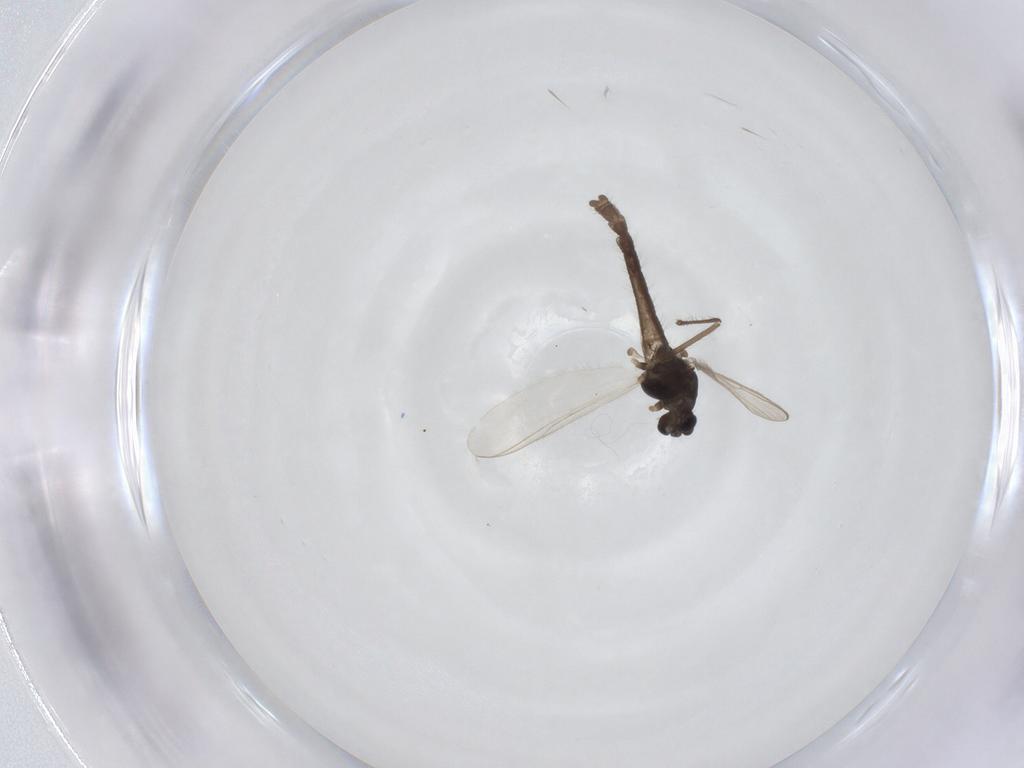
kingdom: Animalia
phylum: Arthropoda
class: Insecta
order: Diptera
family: Chironomidae
